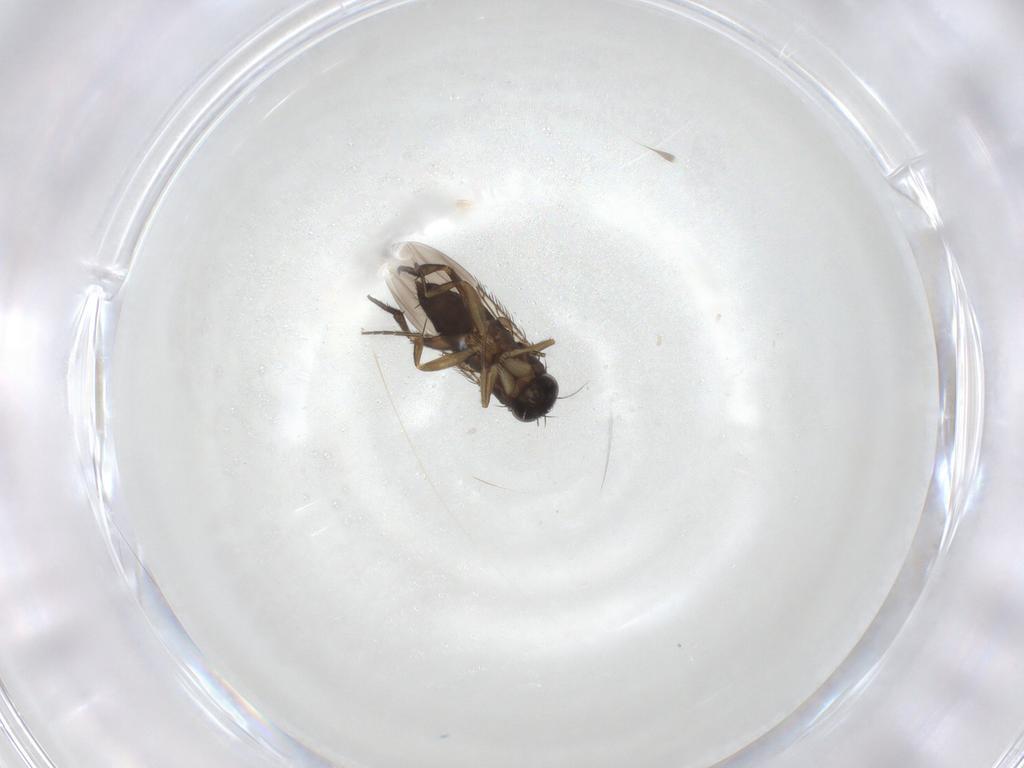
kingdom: Animalia
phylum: Arthropoda
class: Insecta
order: Diptera
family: Phoridae
